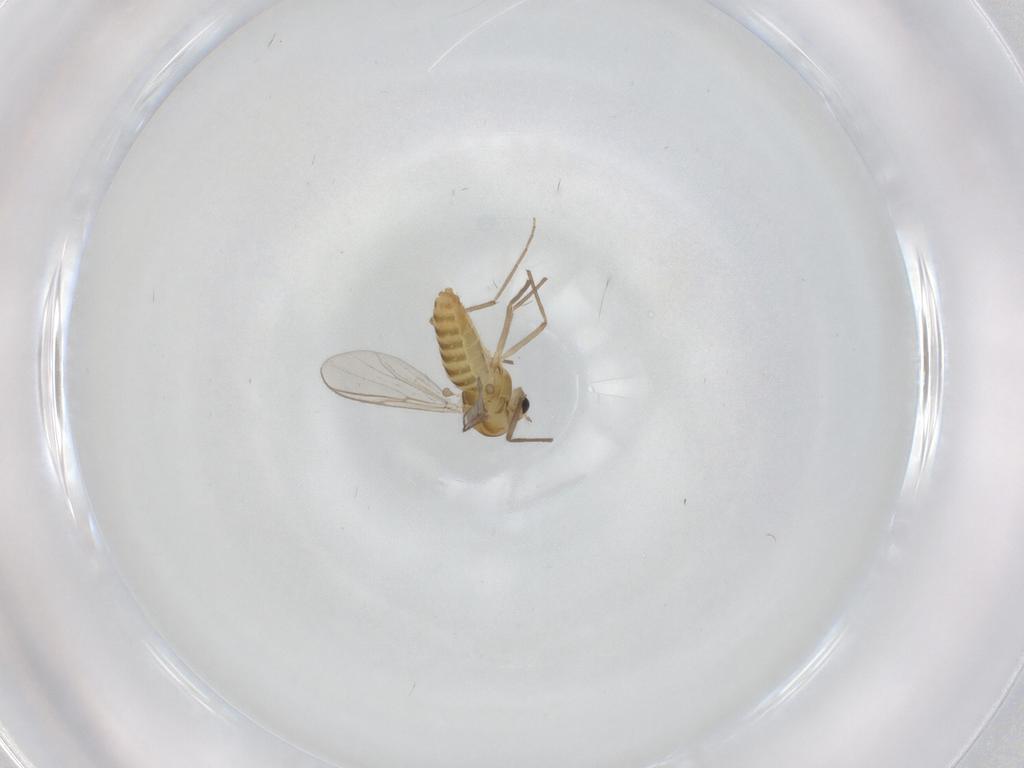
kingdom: Animalia
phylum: Arthropoda
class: Insecta
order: Diptera
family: Chironomidae
